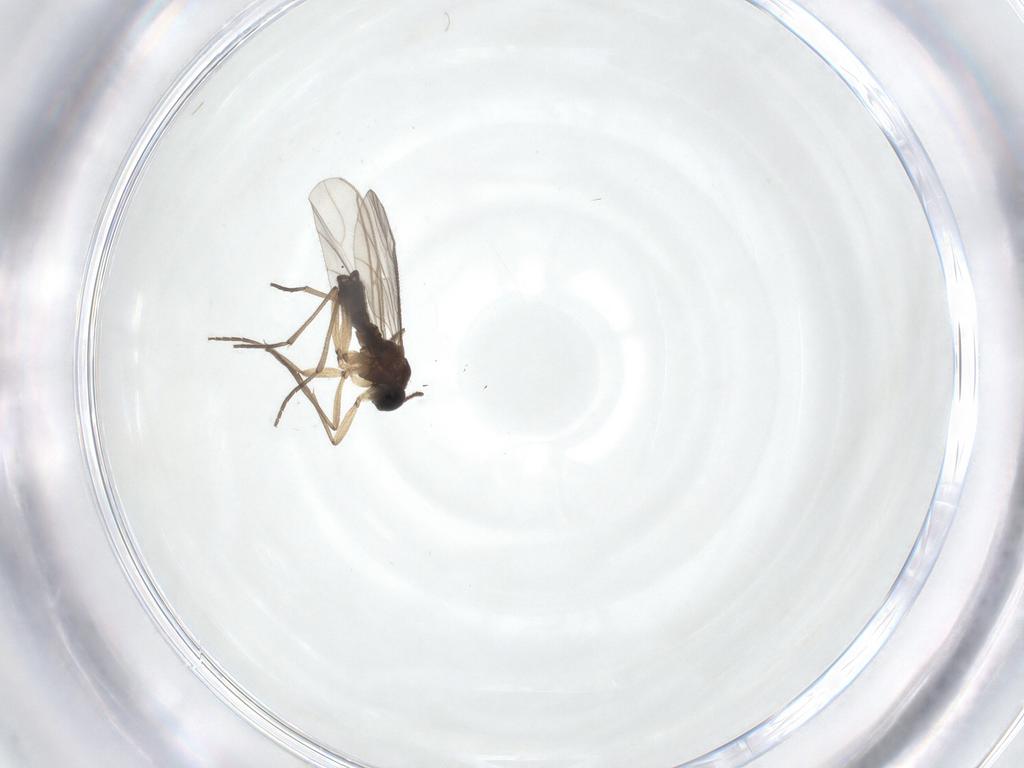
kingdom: Animalia
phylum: Arthropoda
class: Insecta
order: Diptera
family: Sciaridae
